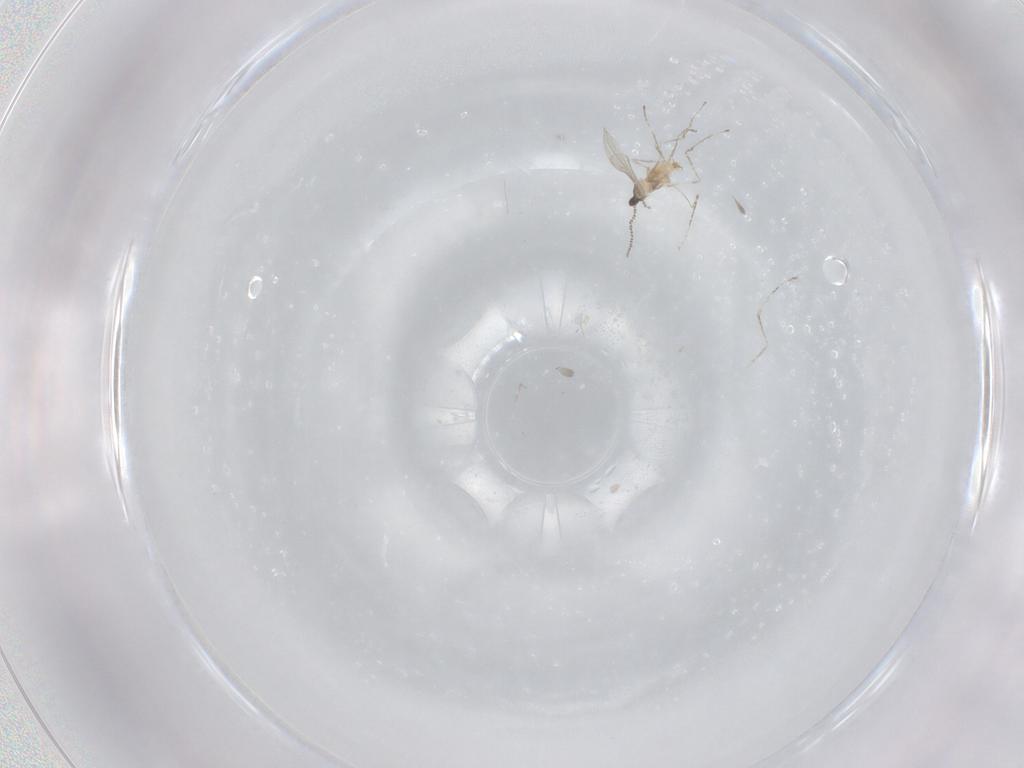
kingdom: Animalia
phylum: Arthropoda
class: Insecta
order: Diptera
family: Cecidomyiidae
